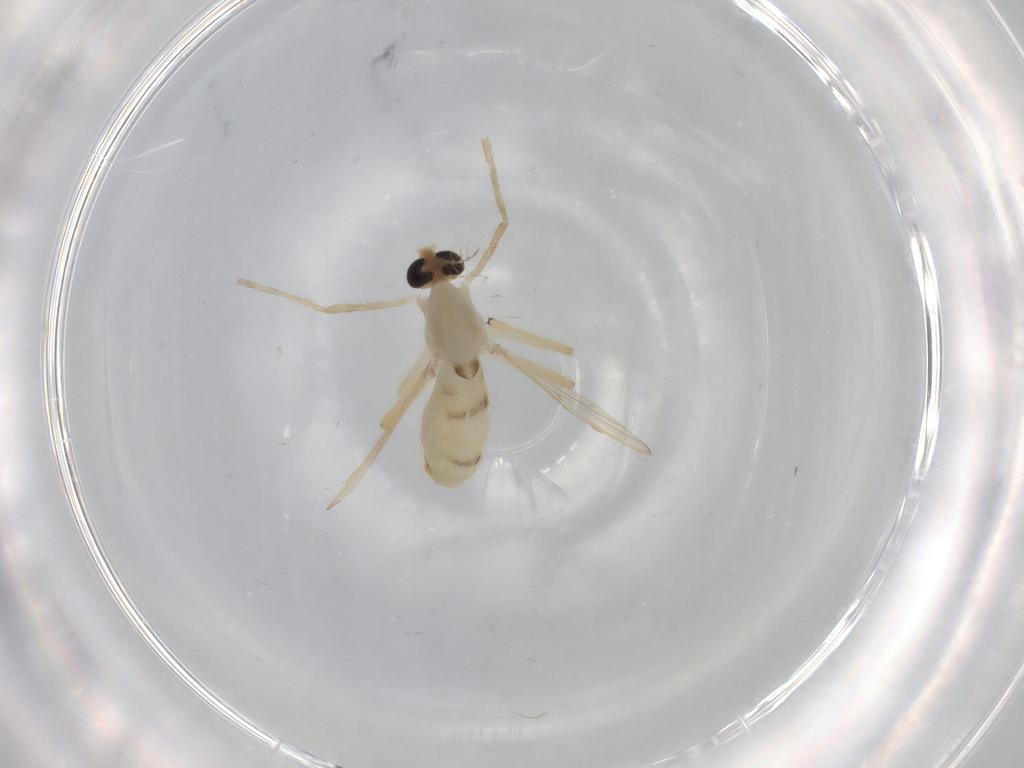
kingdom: Animalia
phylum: Arthropoda
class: Insecta
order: Diptera
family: Chironomidae
